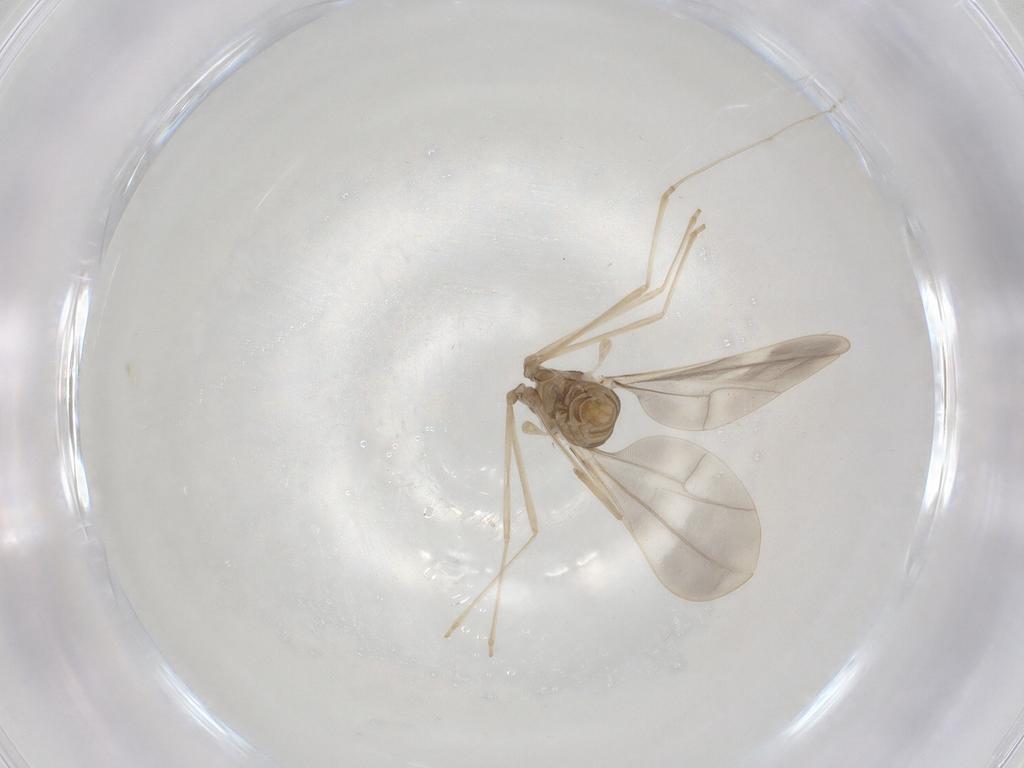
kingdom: Animalia
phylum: Arthropoda
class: Insecta
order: Diptera
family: Cecidomyiidae
